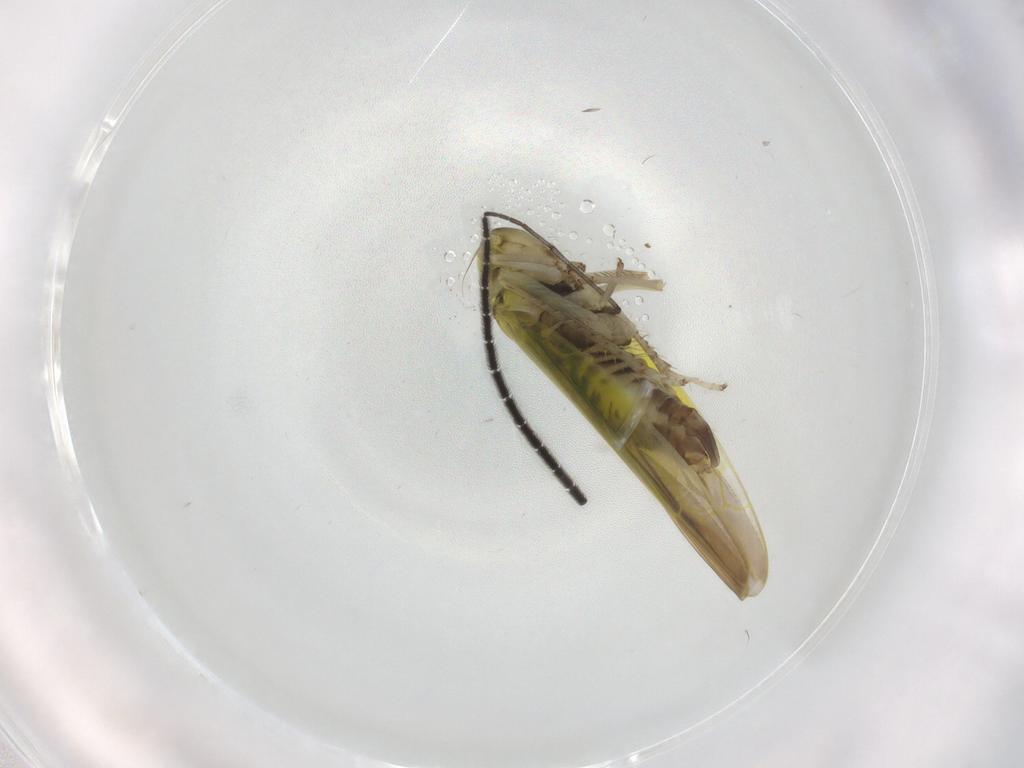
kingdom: Animalia
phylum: Arthropoda
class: Insecta
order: Hemiptera
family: Cicadellidae
